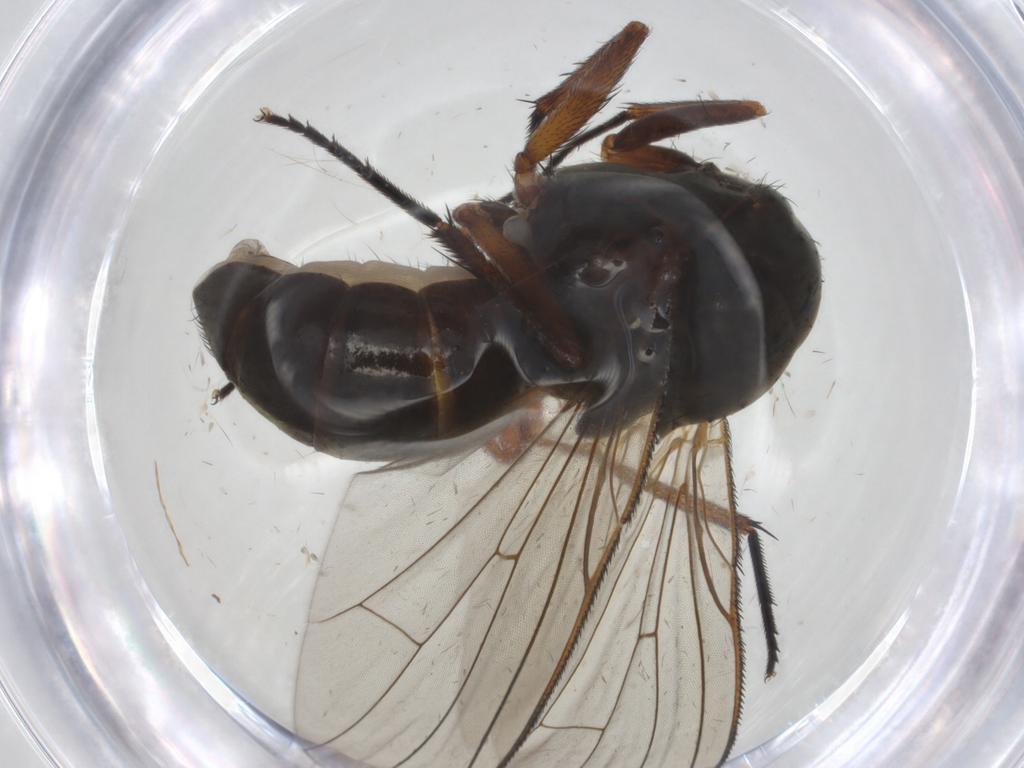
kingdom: Animalia
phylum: Arthropoda
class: Insecta
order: Diptera
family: Anthomyiidae
